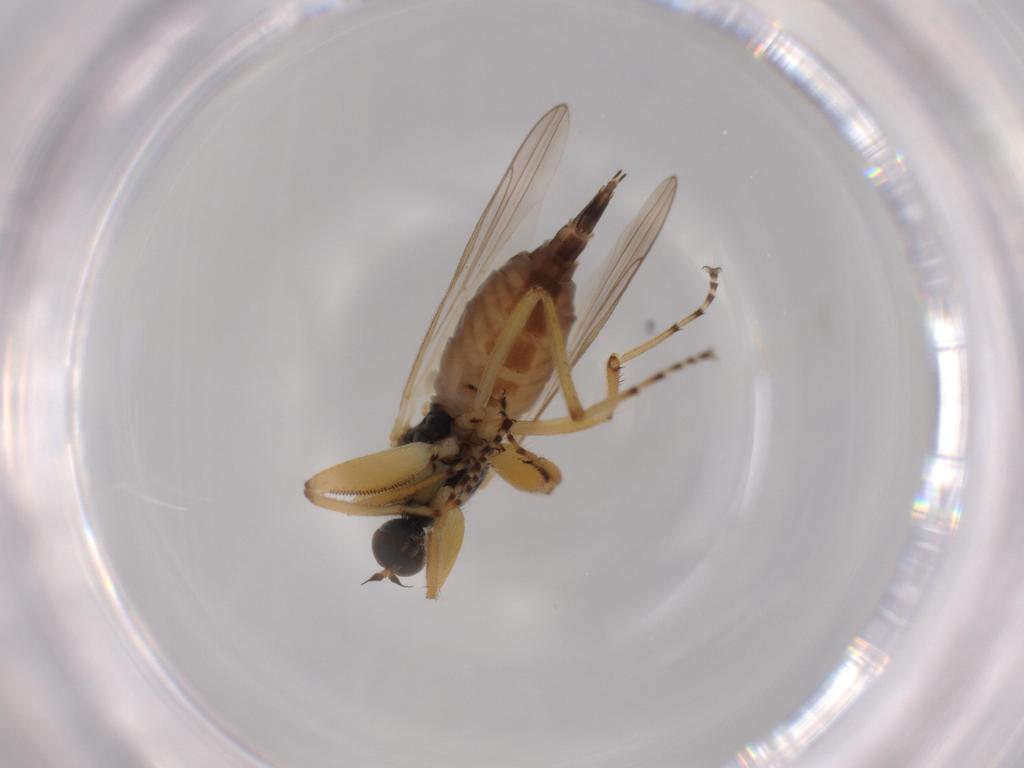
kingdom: Animalia
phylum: Arthropoda
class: Insecta
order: Diptera
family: Hybotidae
